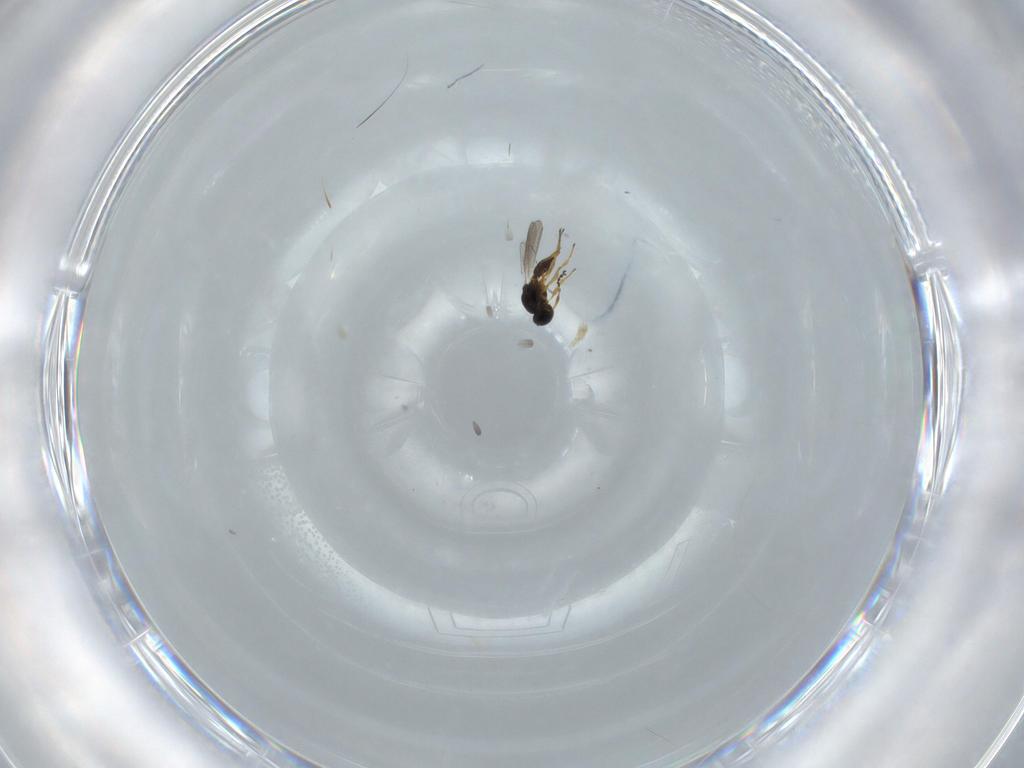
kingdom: Animalia
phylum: Arthropoda
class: Insecta
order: Hymenoptera
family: Platygastridae
